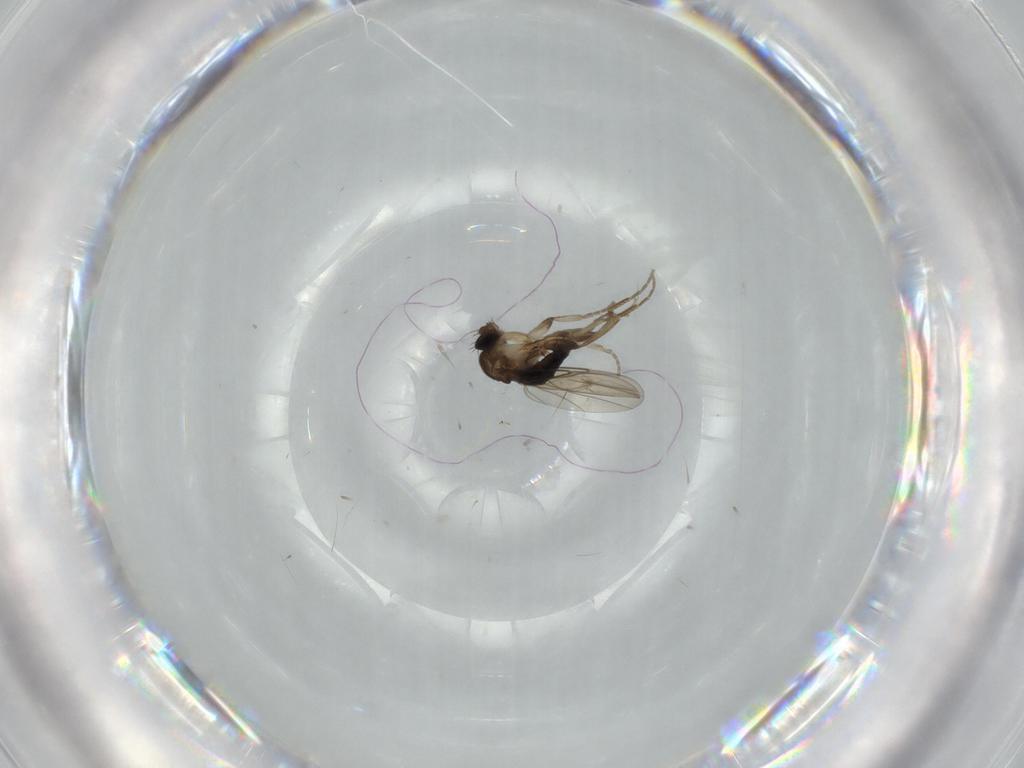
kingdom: Animalia
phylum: Arthropoda
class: Insecta
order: Diptera
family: Phoridae
